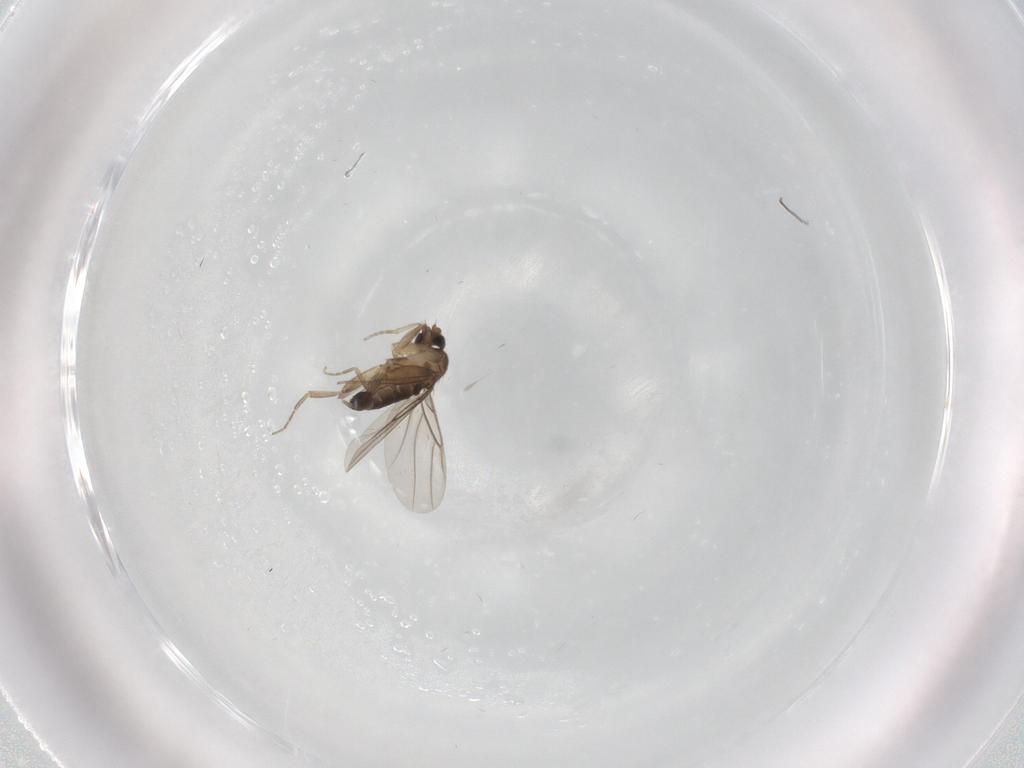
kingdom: Animalia
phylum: Arthropoda
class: Insecta
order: Diptera
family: Phoridae
